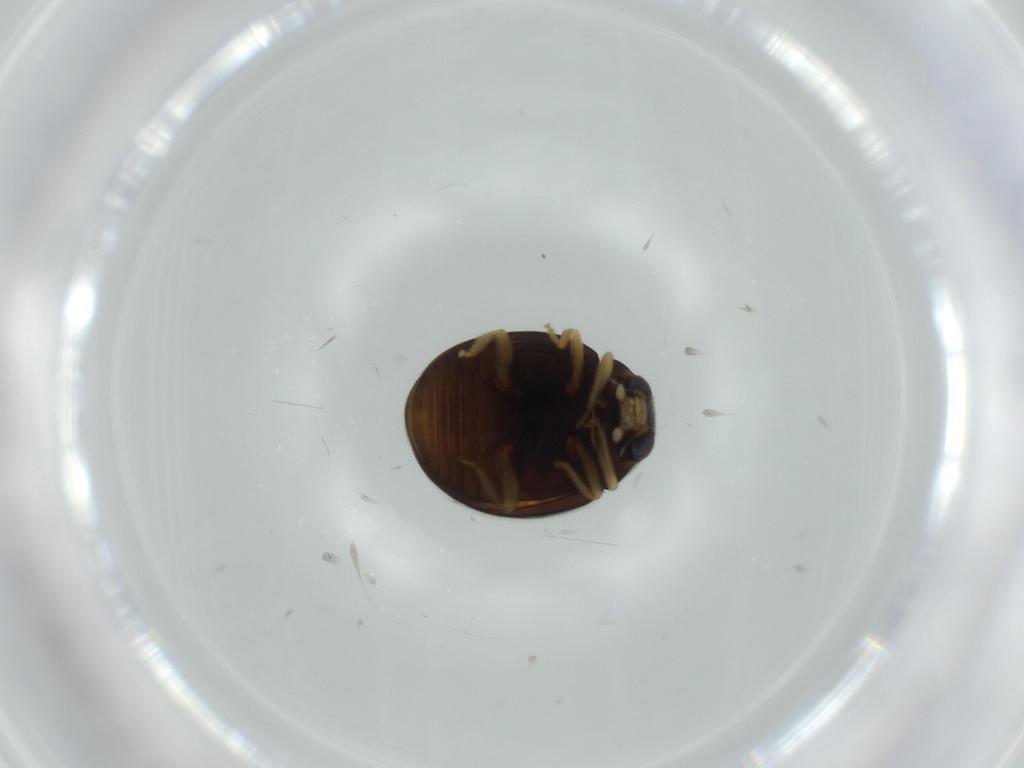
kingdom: Animalia
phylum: Arthropoda
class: Insecta
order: Coleoptera
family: Coccinellidae
